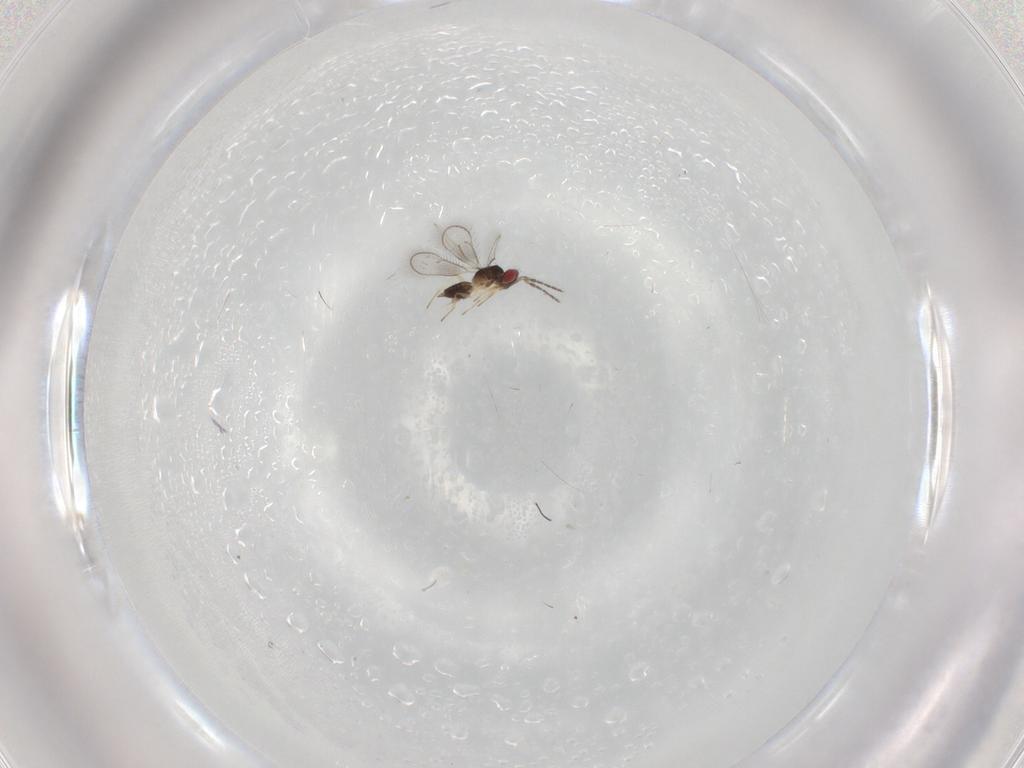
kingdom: Animalia
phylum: Arthropoda
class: Insecta
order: Hymenoptera
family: Eulophidae
